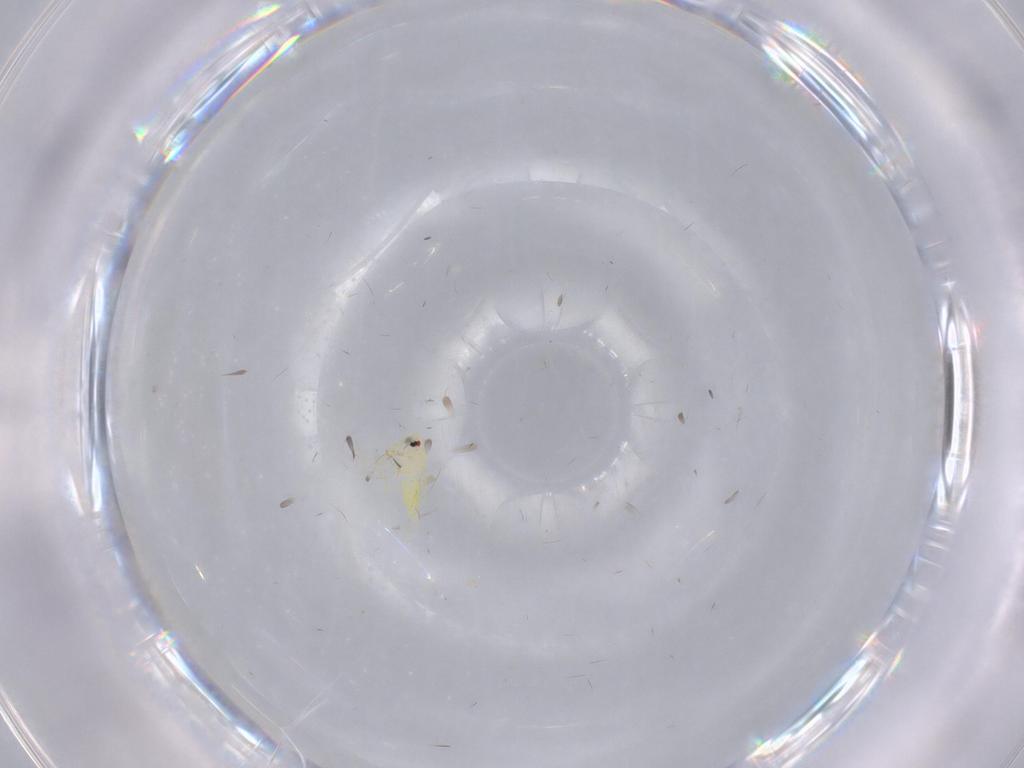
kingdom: Animalia
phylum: Arthropoda
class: Insecta
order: Hemiptera
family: Aleyrodidae
